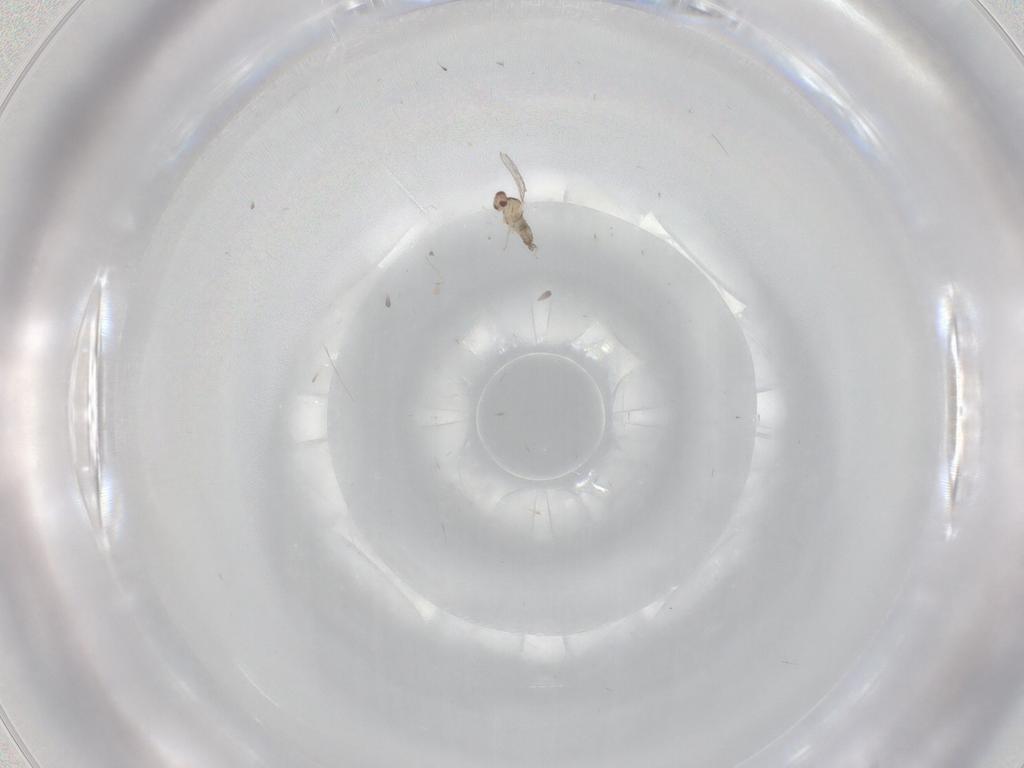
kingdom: Animalia
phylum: Arthropoda
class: Insecta
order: Diptera
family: Cecidomyiidae
